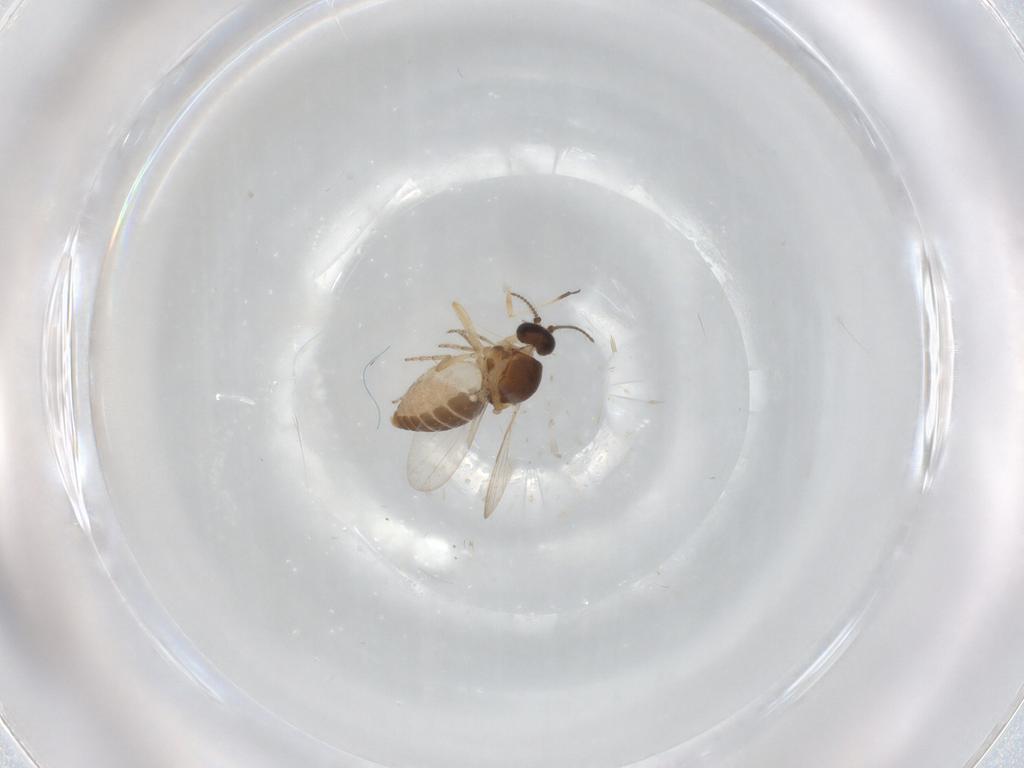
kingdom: Animalia
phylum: Arthropoda
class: Insecta
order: Diptera
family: Ceratopogonidae
